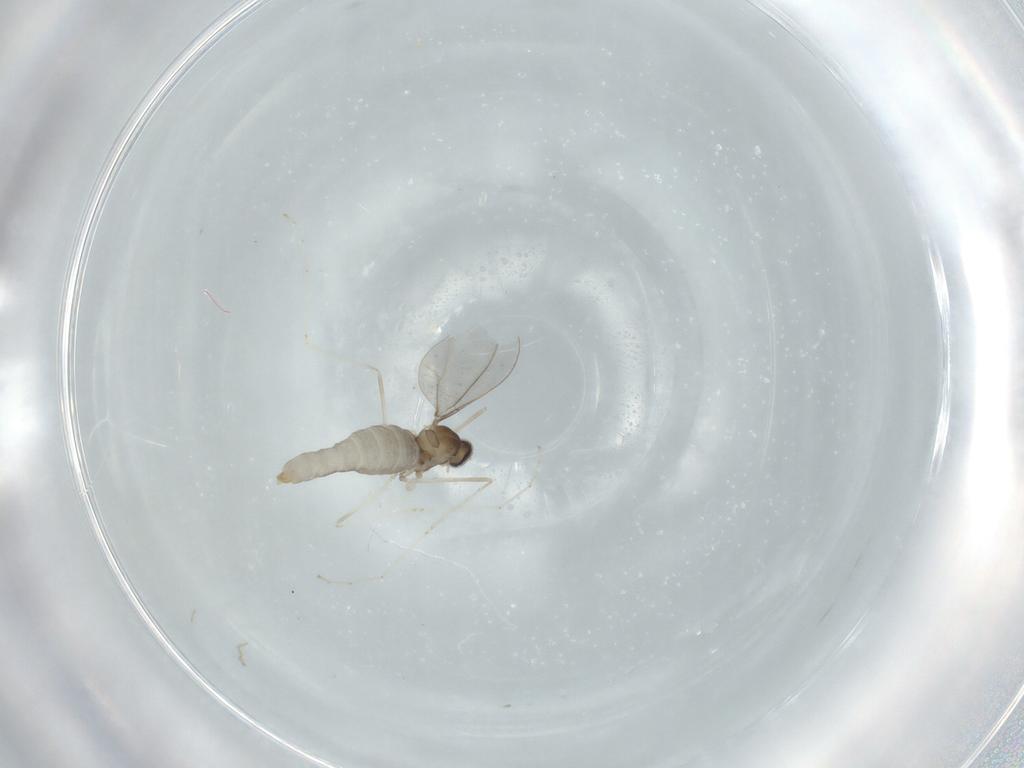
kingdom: Animalia
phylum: Arthropoda
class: Insecta
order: Diptera
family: Cecidomyiidae
